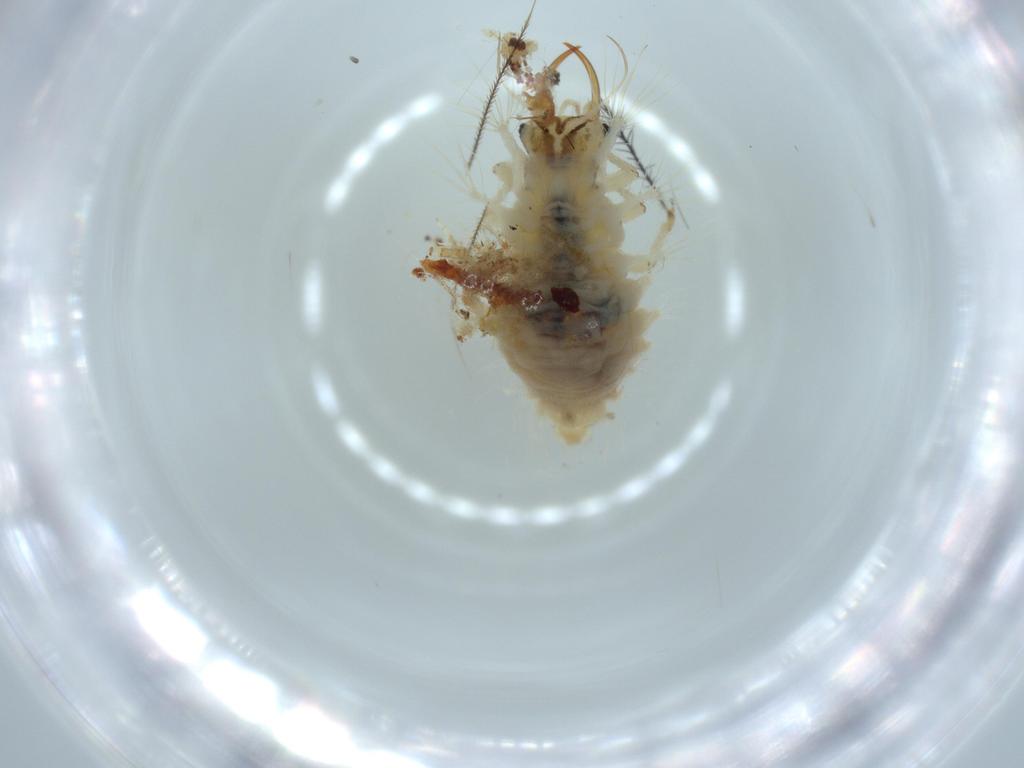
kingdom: Animalia
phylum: Arthropoda
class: Insecta
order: Neuroptera
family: Chrysopidae
